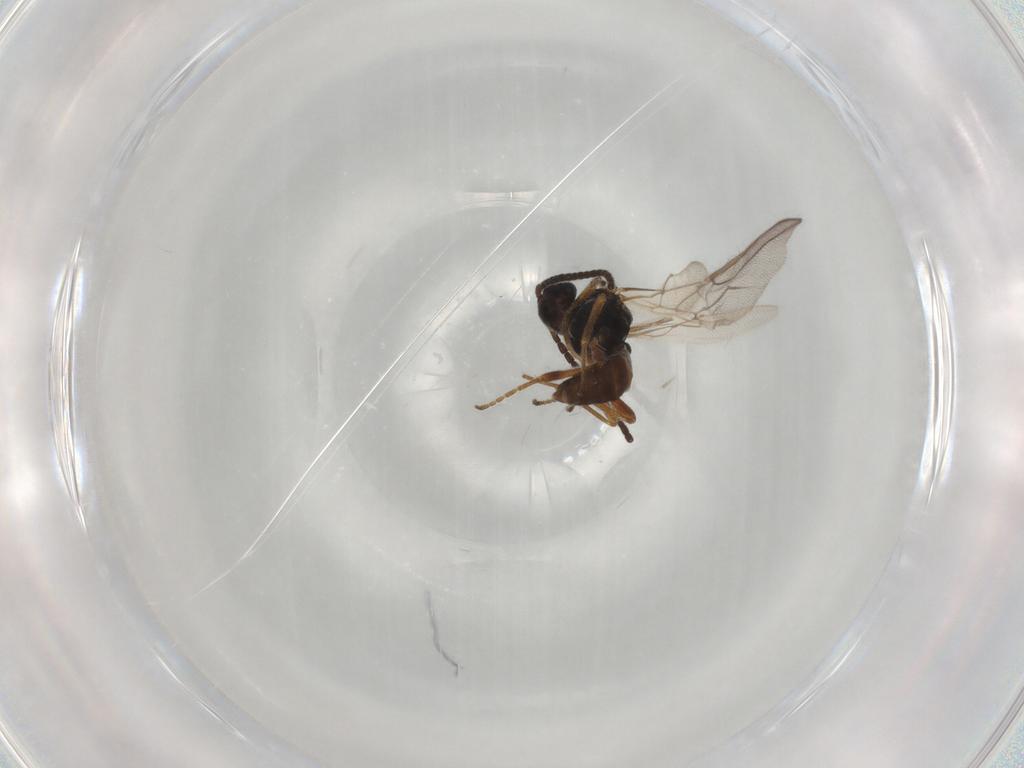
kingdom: Animalia
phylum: Arthropoda
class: Insecta
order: Hymenoptera
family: Braconidae
